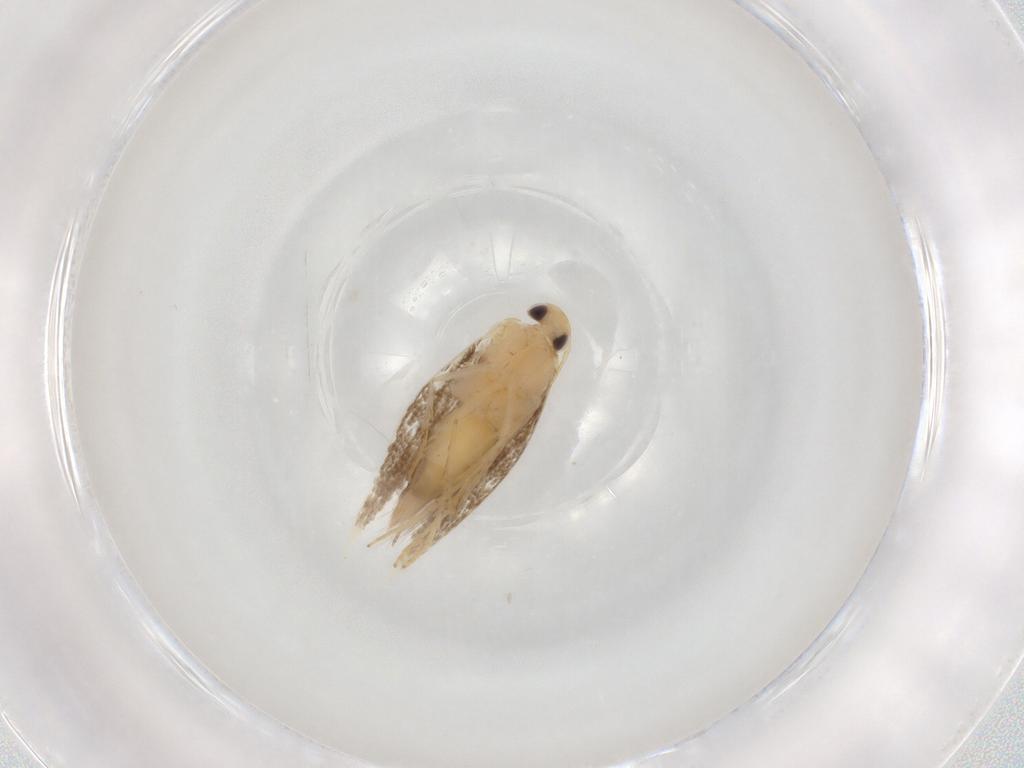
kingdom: Animalia
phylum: Arthropoda
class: Insecta
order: Lepidoptera
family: Gracillariidae
